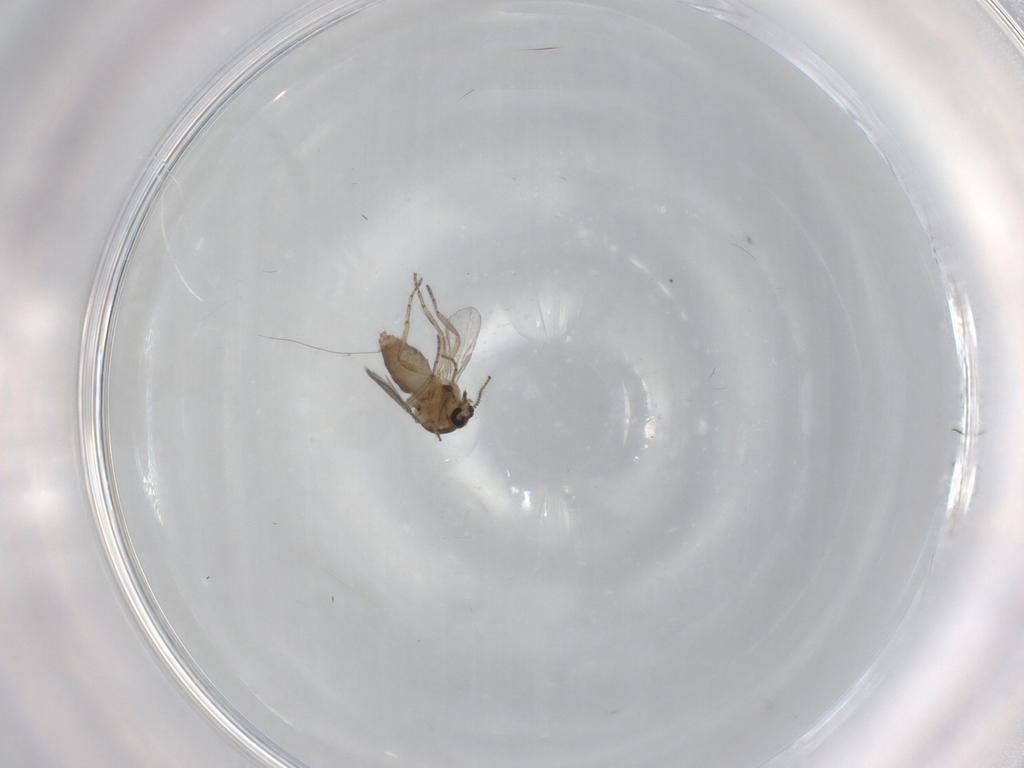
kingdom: Animalia
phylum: Arthropoda
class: Insecta
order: Diptera
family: Ceratopogonidae
